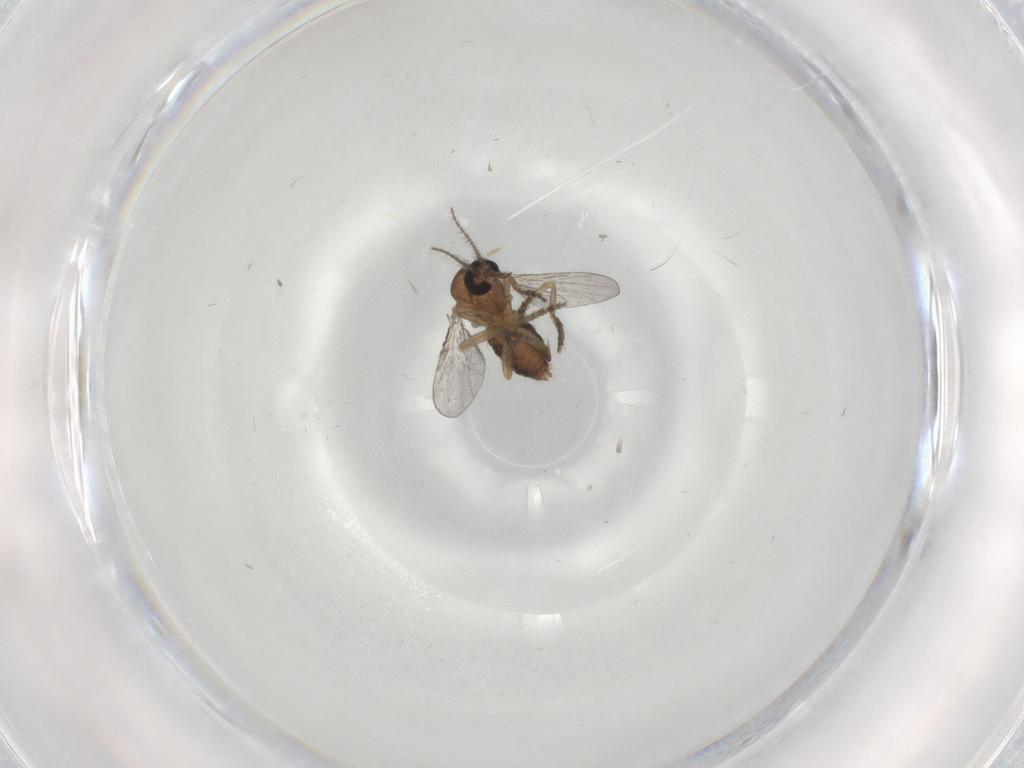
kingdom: Animalia
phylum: Arthropoda
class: Insecta
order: Diptera
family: Ceratopogonidae
